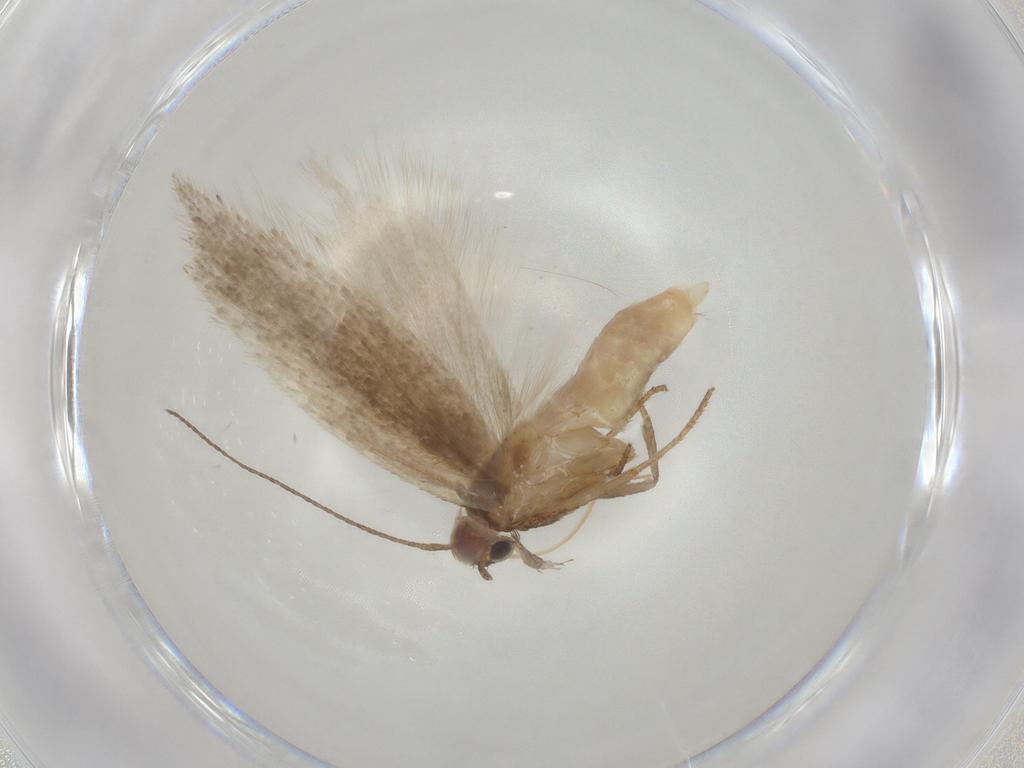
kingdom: Animalia
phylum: Arthropoda
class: Insecta
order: Lepidoptera
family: Gelechiidae
